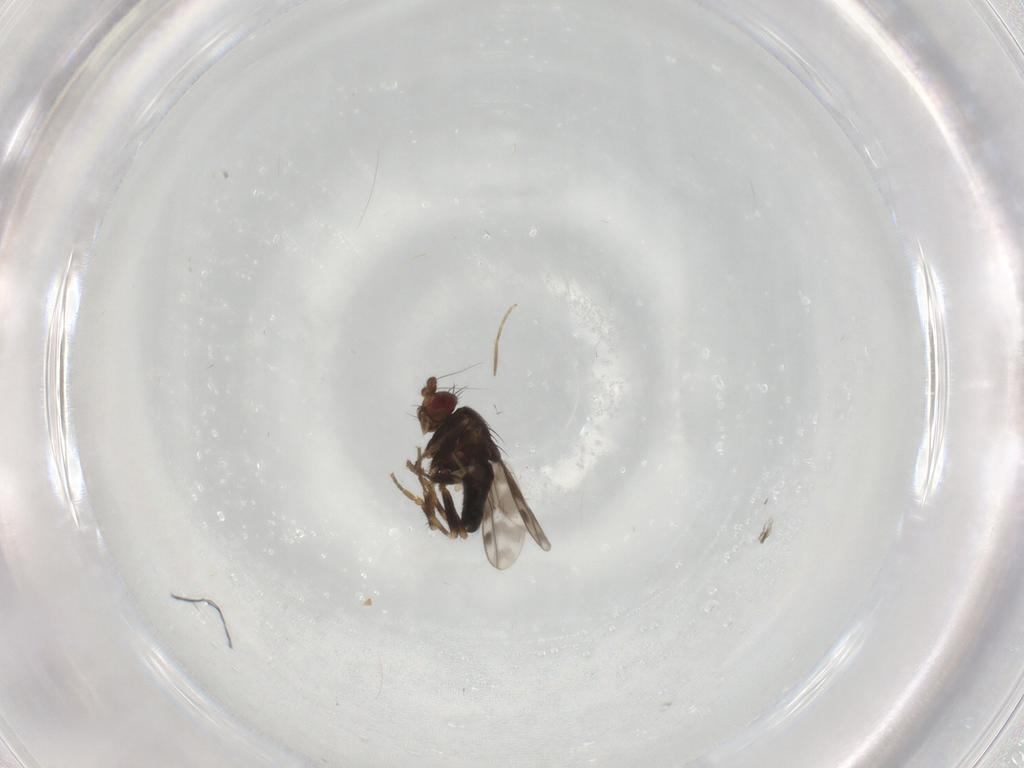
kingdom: Animalia
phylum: Arthropoda
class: Insecta
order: Diptera
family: Sphaeroceridae
